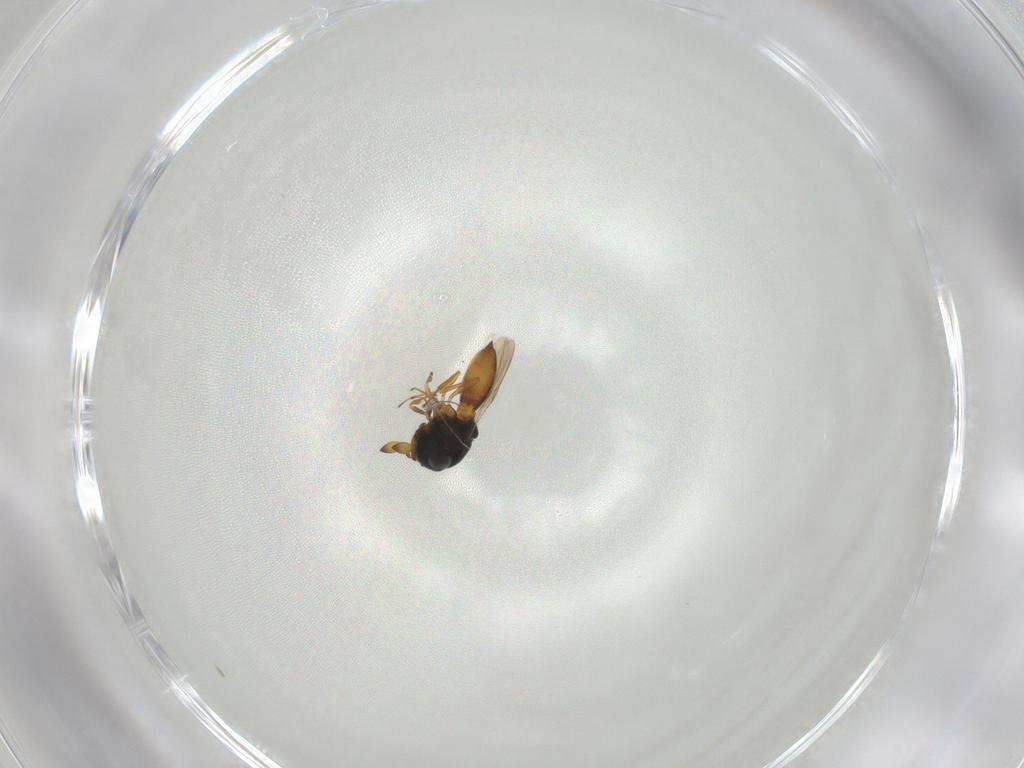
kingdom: Animalia
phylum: Arthropoda
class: Insecta
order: Hymenoptera
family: Scelionidae
